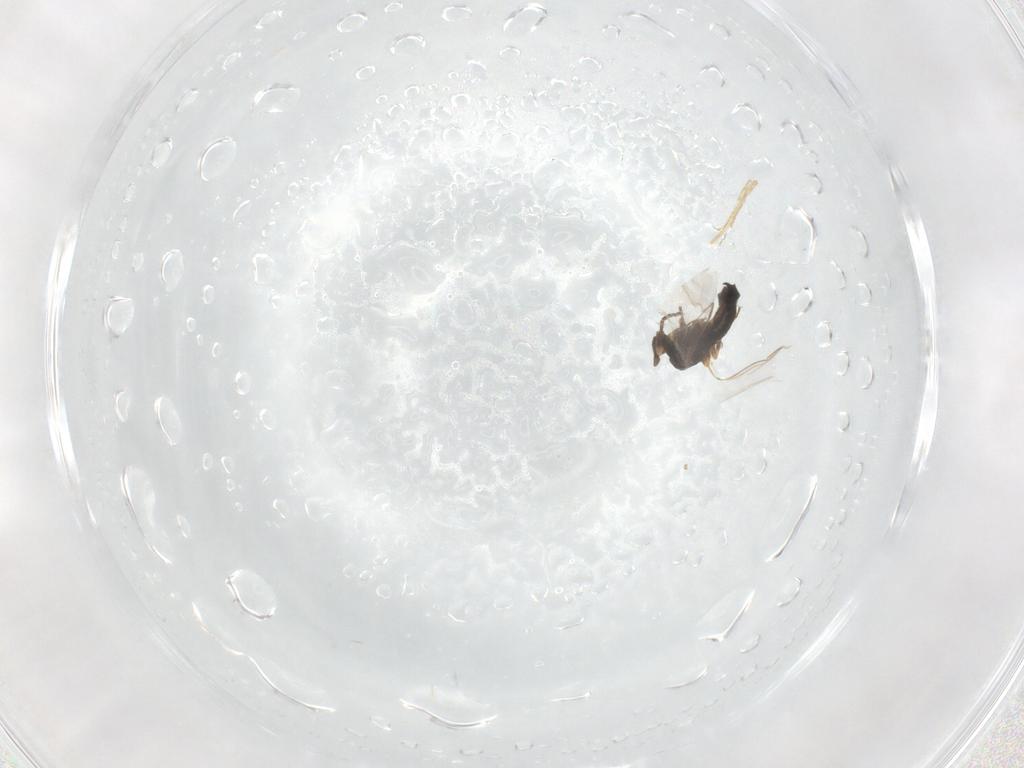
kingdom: Animalia
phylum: Arthropoda
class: Insecta
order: Diptera
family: Scatopsidae
